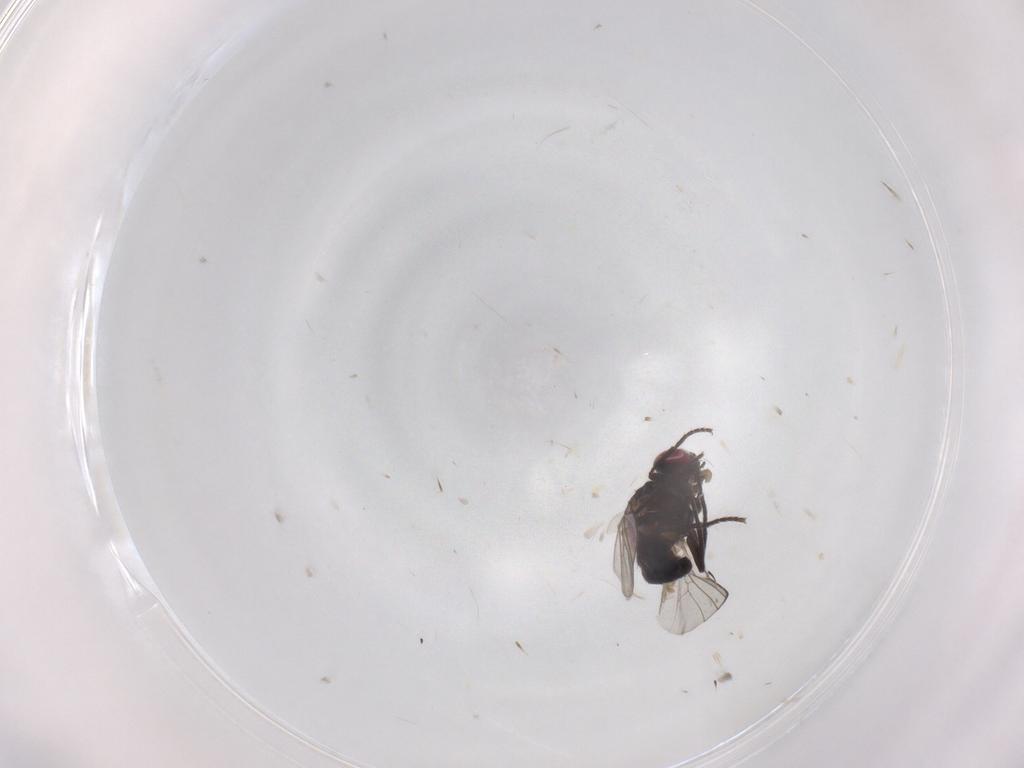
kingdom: Animalia
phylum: Arthropoda
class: Insecta
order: Diptera
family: Agromyzidae
